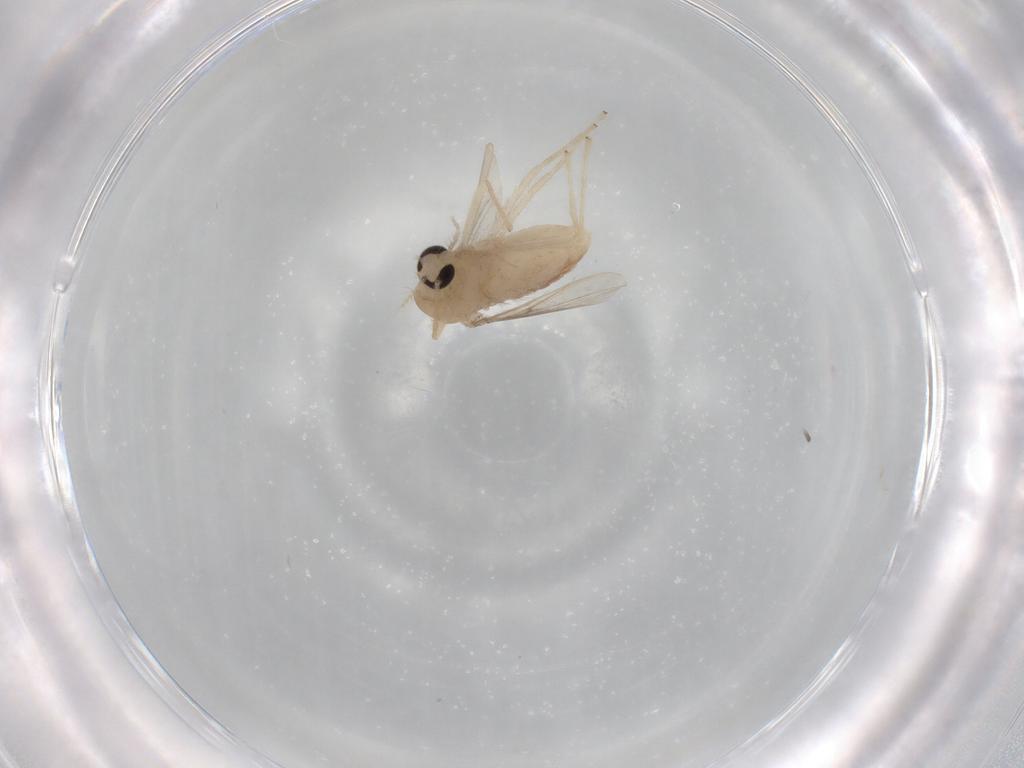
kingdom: Animalia
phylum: Arthropoda
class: Insecta
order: Diptera
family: Chironomidae
